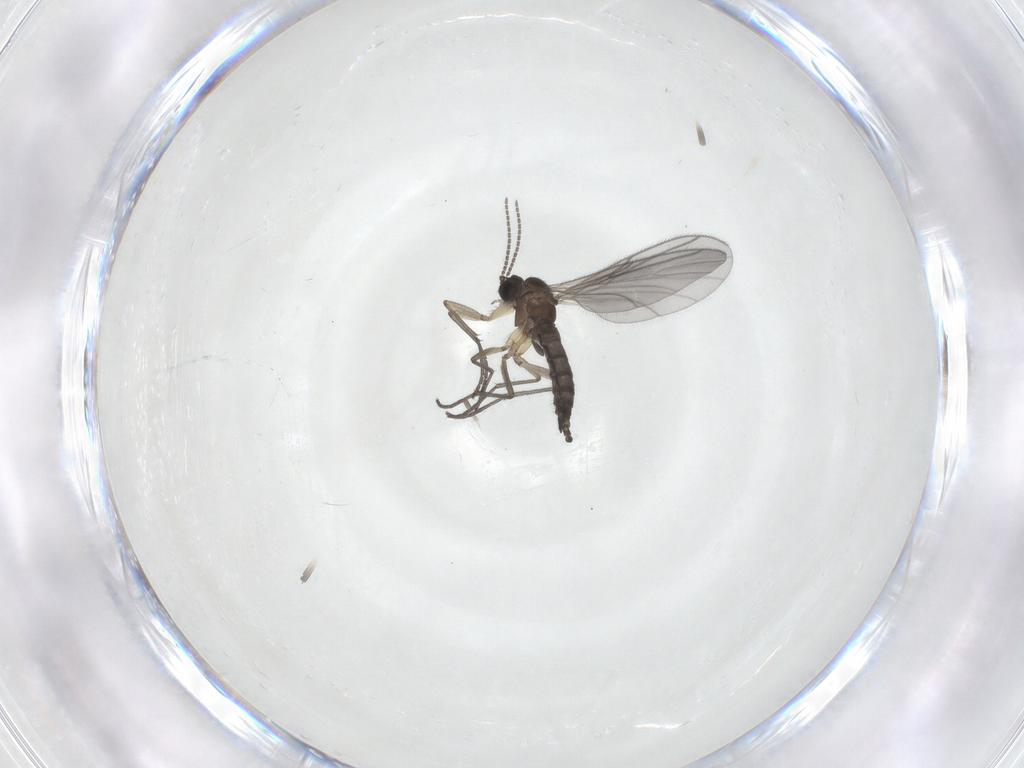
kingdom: Animalia
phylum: Arthropoda
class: Insecta
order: Diptera
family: Sciaridae
